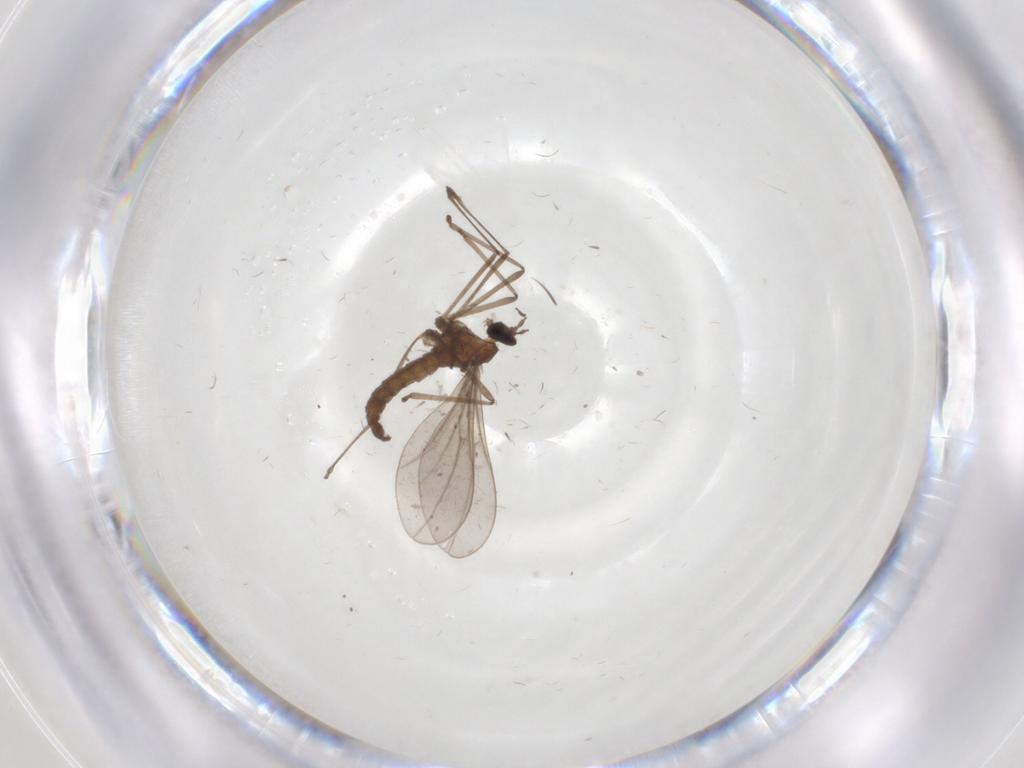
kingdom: Animalia
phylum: Arthropoda
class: Insecta
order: Diptera
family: Cecidomyiidae
